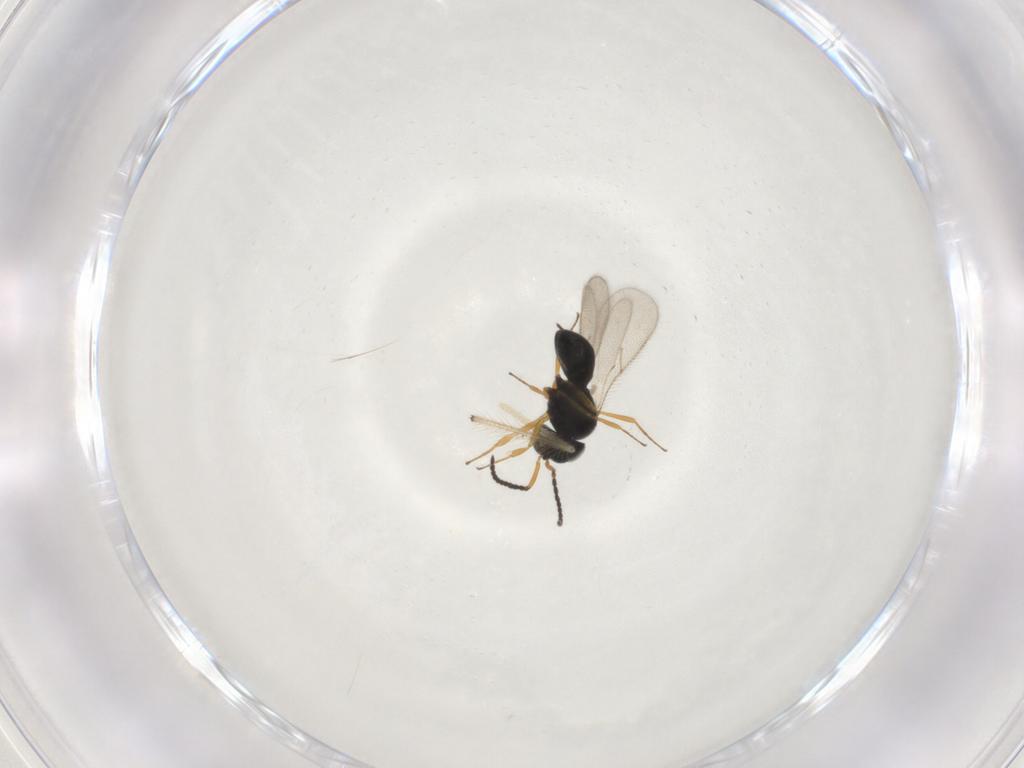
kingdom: Animalia
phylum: Arthropoda
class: Insecta
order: Hymenoptera
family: Scelionidae
